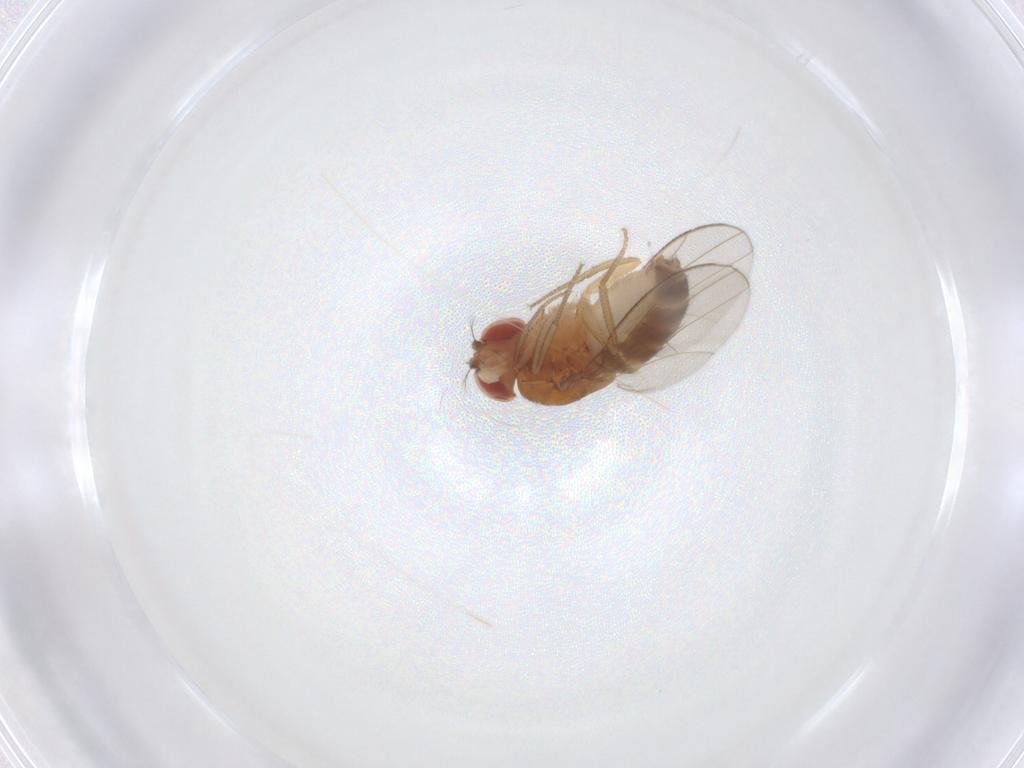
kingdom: Animalia
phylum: Arthropoda
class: Insecta
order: Diptera
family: Drosophilidae
